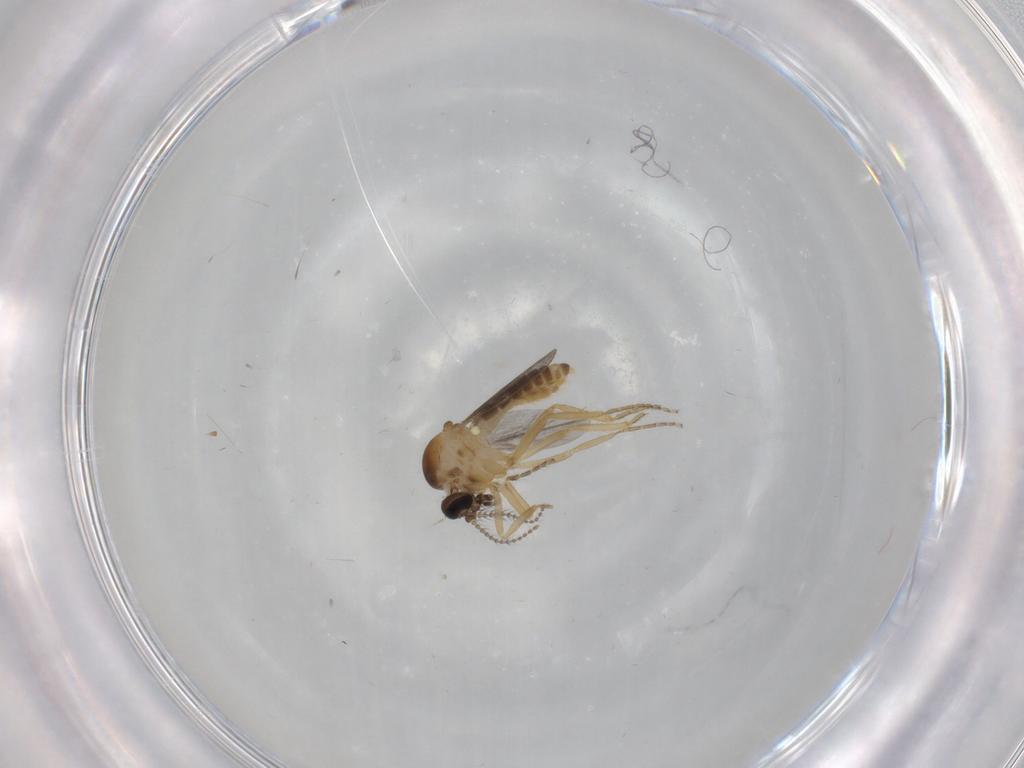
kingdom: Animalia
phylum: Arthropoda
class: Insecta
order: Diptera
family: Ceratopogonidae
